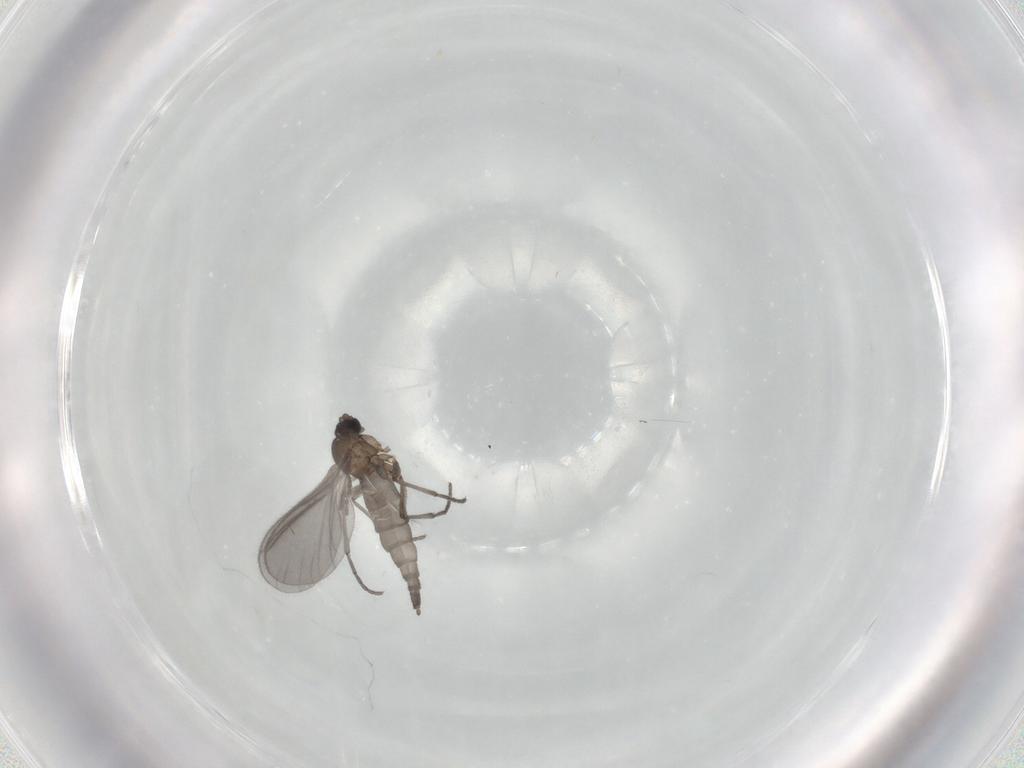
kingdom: Animalia
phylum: Arthropoda
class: Insecta
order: Diptera
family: Sciaridae
